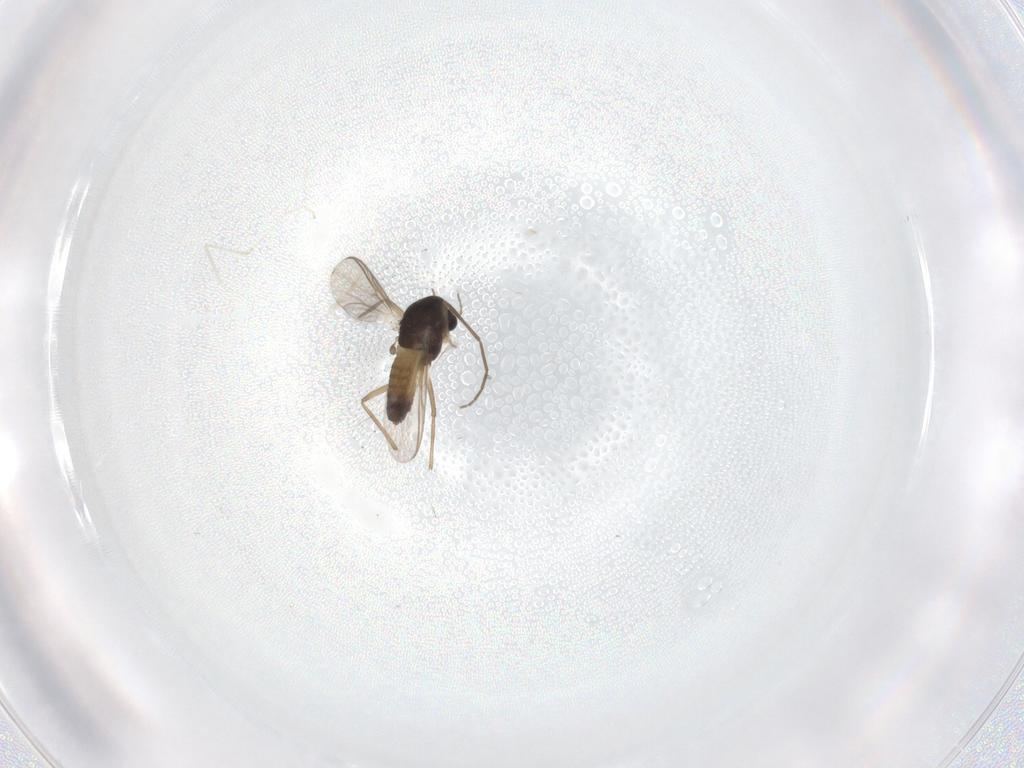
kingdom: Animalia
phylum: Arthropoda
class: Insecta
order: Diptera
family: Chironomidae
